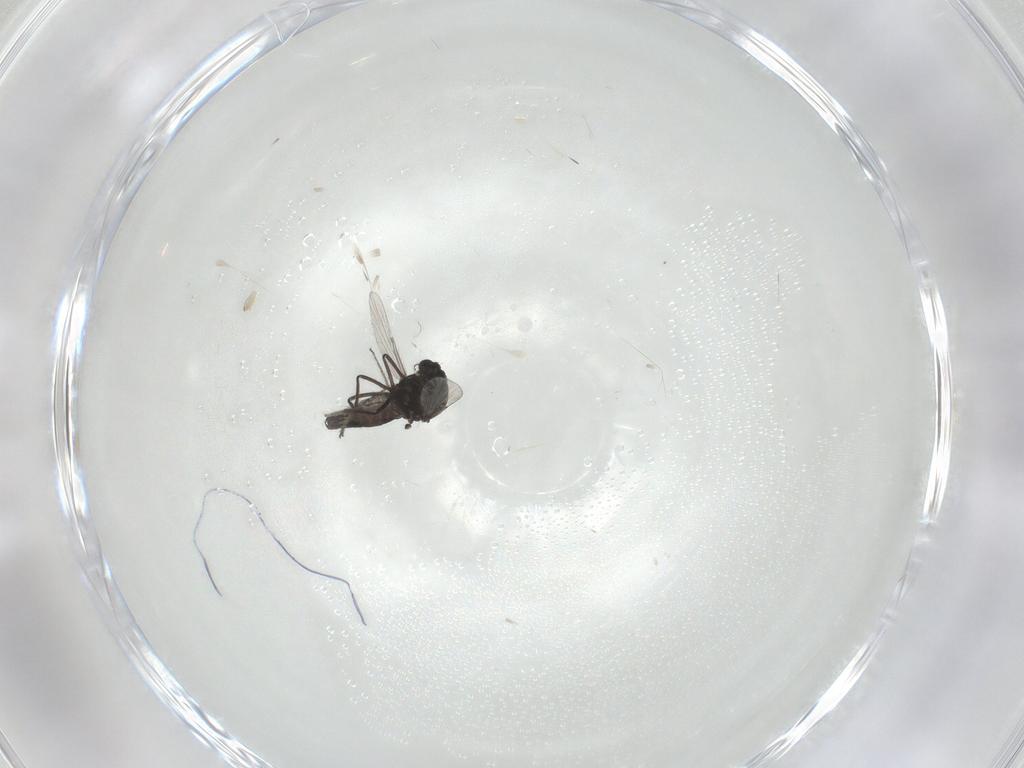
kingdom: Animalia
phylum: Arthropoda
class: Insecta
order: Diptera
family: Ceratopogonidae
